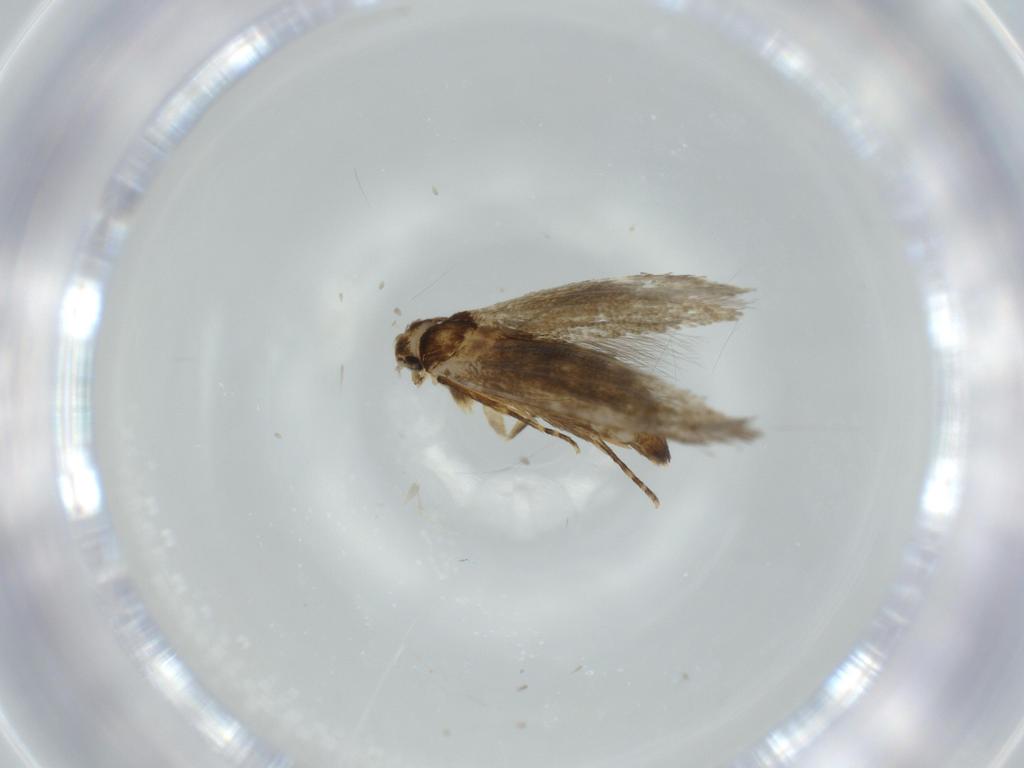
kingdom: Animalia
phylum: Arthropoda
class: Insecta
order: Lepidoptera
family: Tineidae
